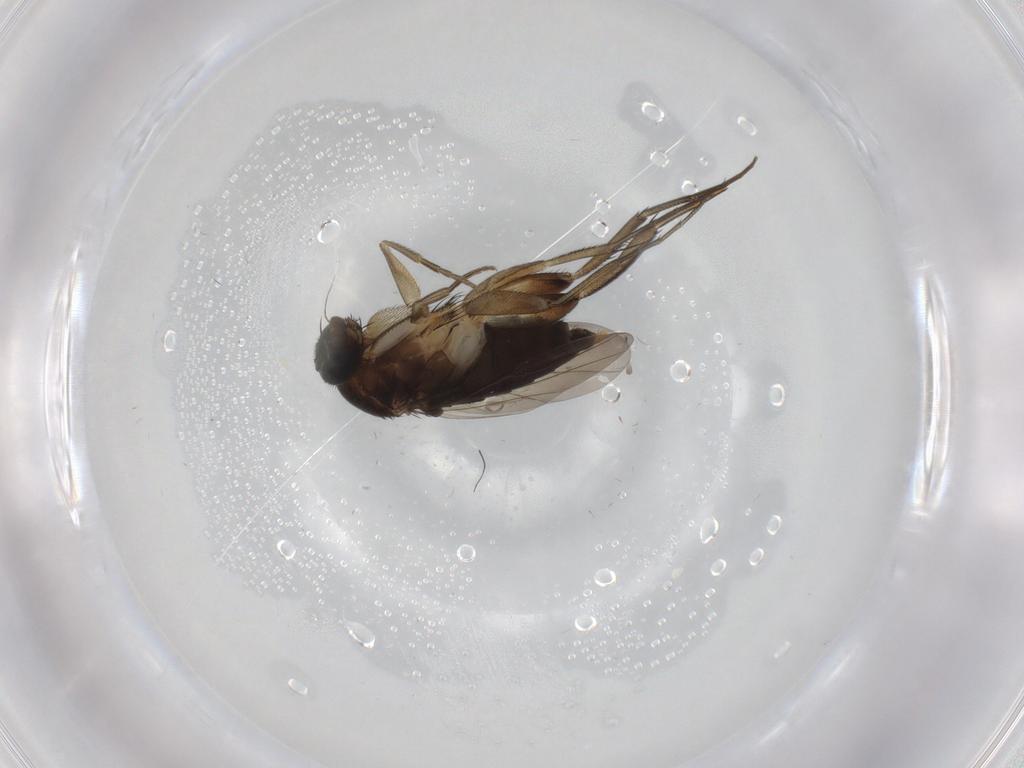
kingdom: Animalia
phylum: Arthropoda
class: Insecta
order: Diptera
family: Phoridae
